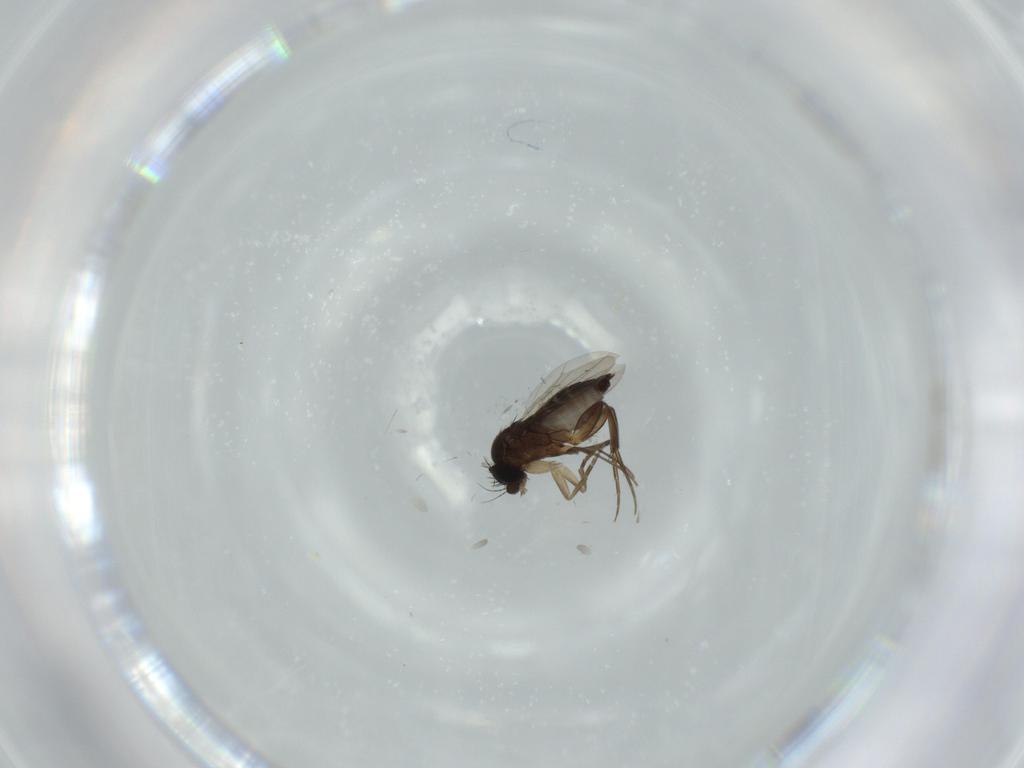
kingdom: Animalia
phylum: Arthropoda
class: Insecta
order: Diptera
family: Phoridae
